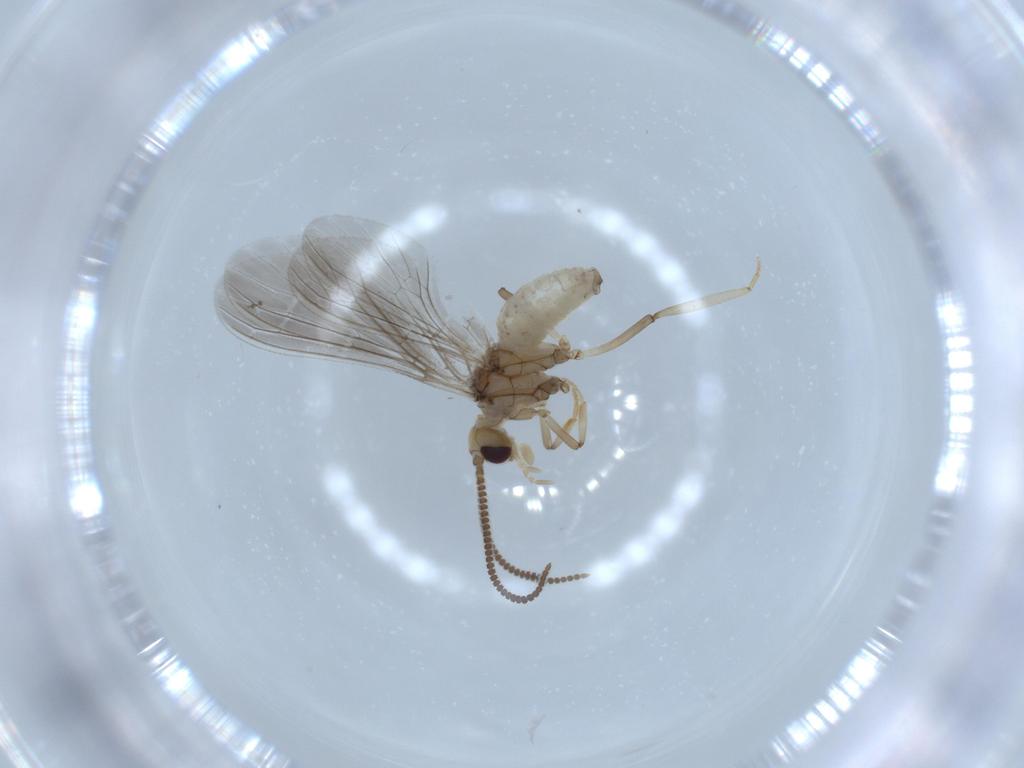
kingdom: Animalia
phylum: Arthropoda
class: Insecta
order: Neuroptera
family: Coniopterygidae
